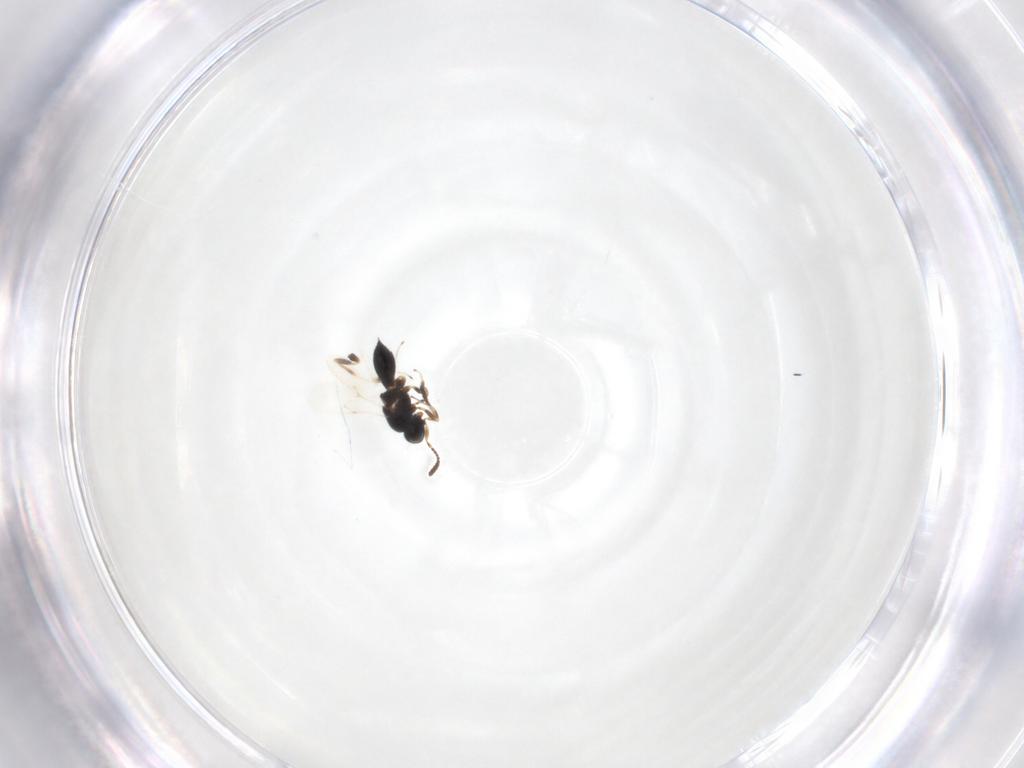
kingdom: Animalia
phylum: Arthropoda
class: Insecta
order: Hymenoptera
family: Scelionidae
